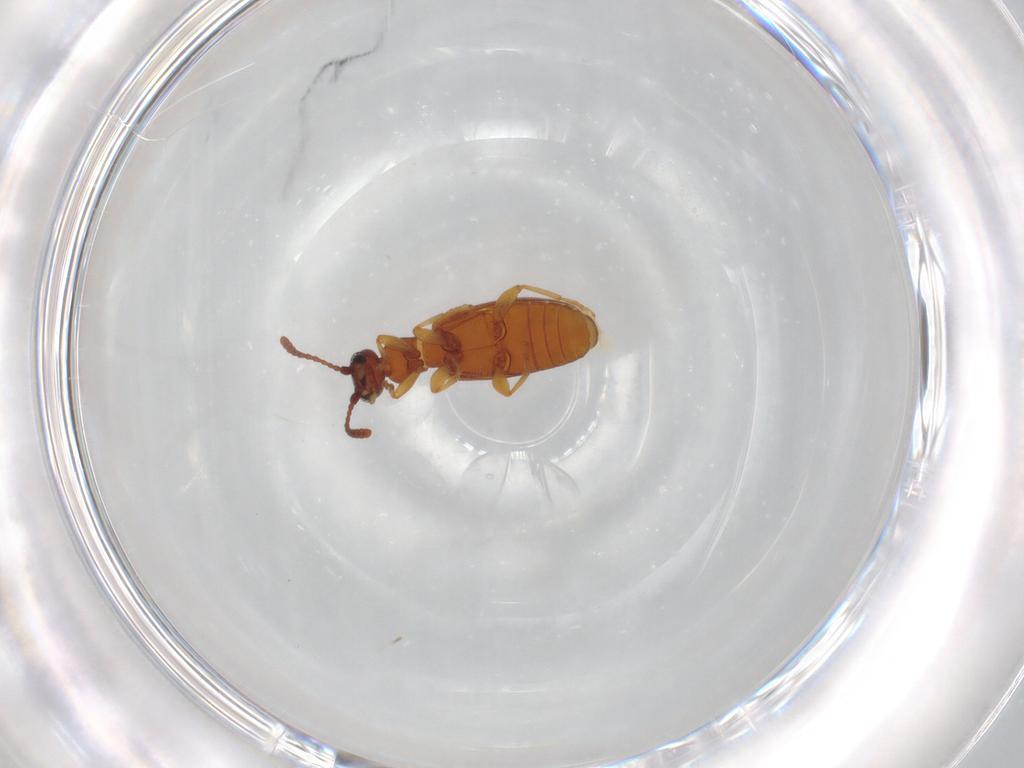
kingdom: Animalia
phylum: Arthropoda
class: Insecta
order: Coleoptera
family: Anthicidae
